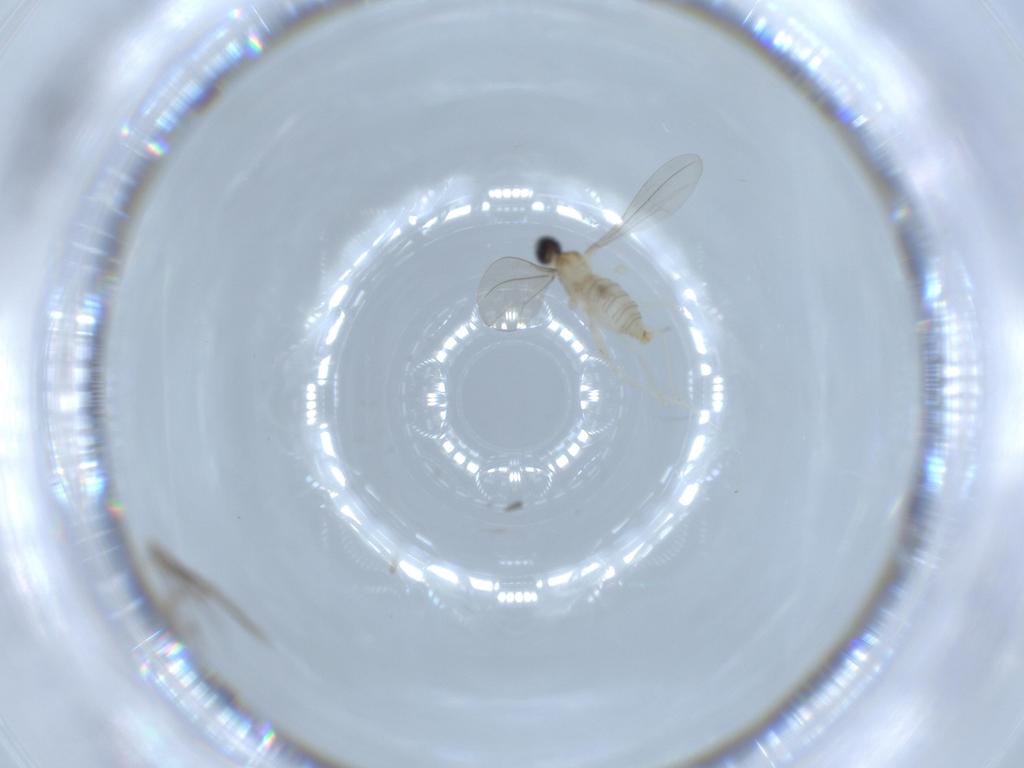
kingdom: Animalia
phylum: Arthropoda
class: Insecta
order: Diptera
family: Cecidomyiidae
